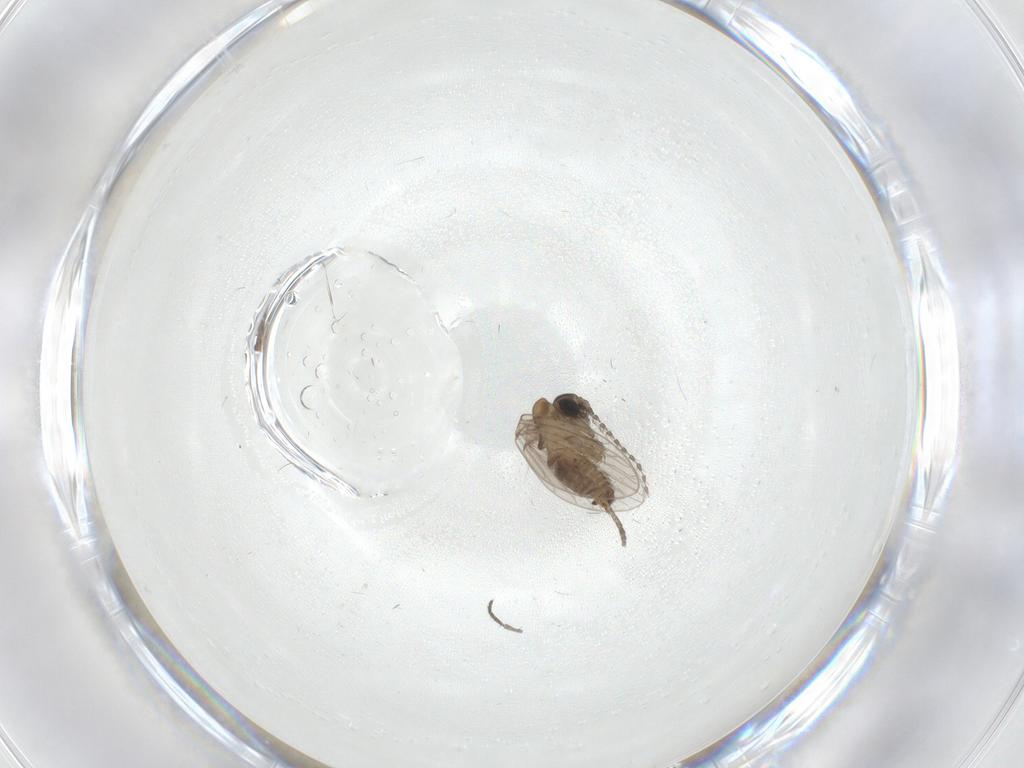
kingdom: Animalia
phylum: Arthropoda
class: Insecta
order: Diptera
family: Sciaridae
